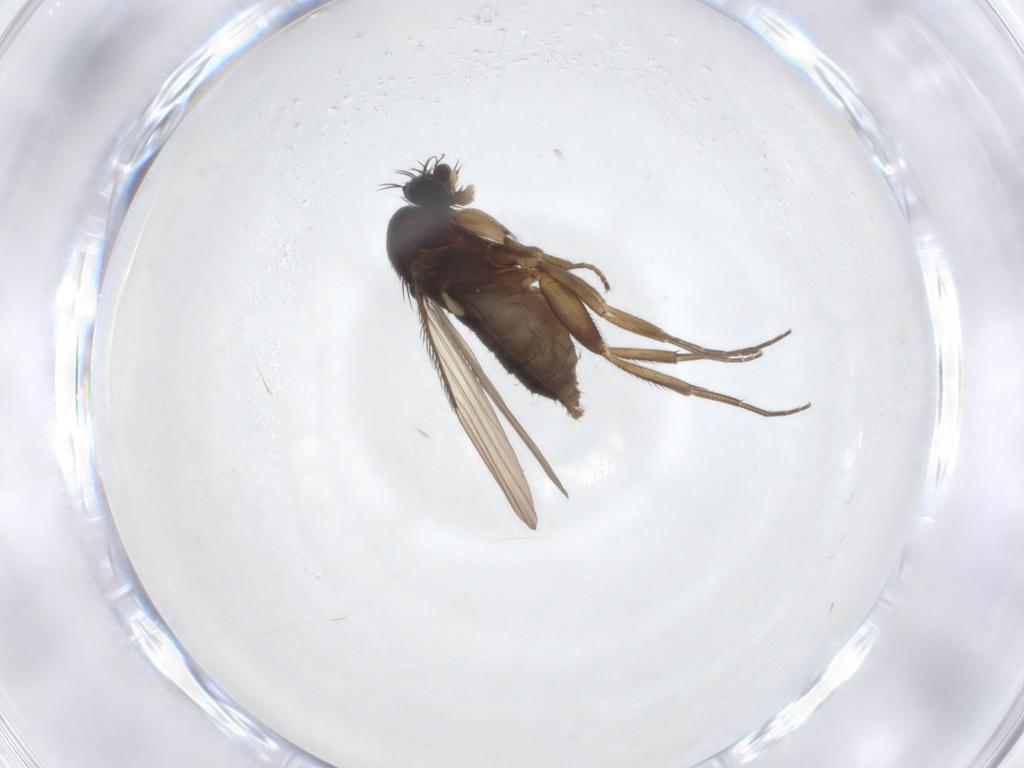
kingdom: Animalia
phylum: Arthropoda
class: Insecta
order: Diptera
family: Phoridae
